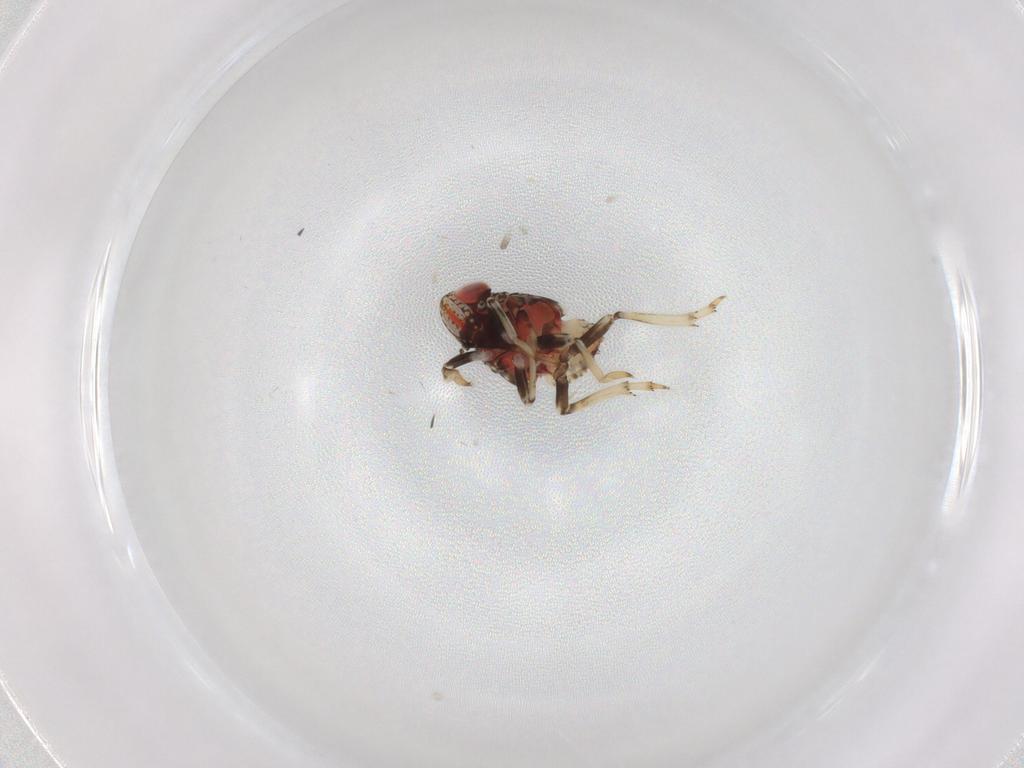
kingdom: Animalia
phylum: Arthropoda
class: Insecta
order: Hemiptera
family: Issidae
